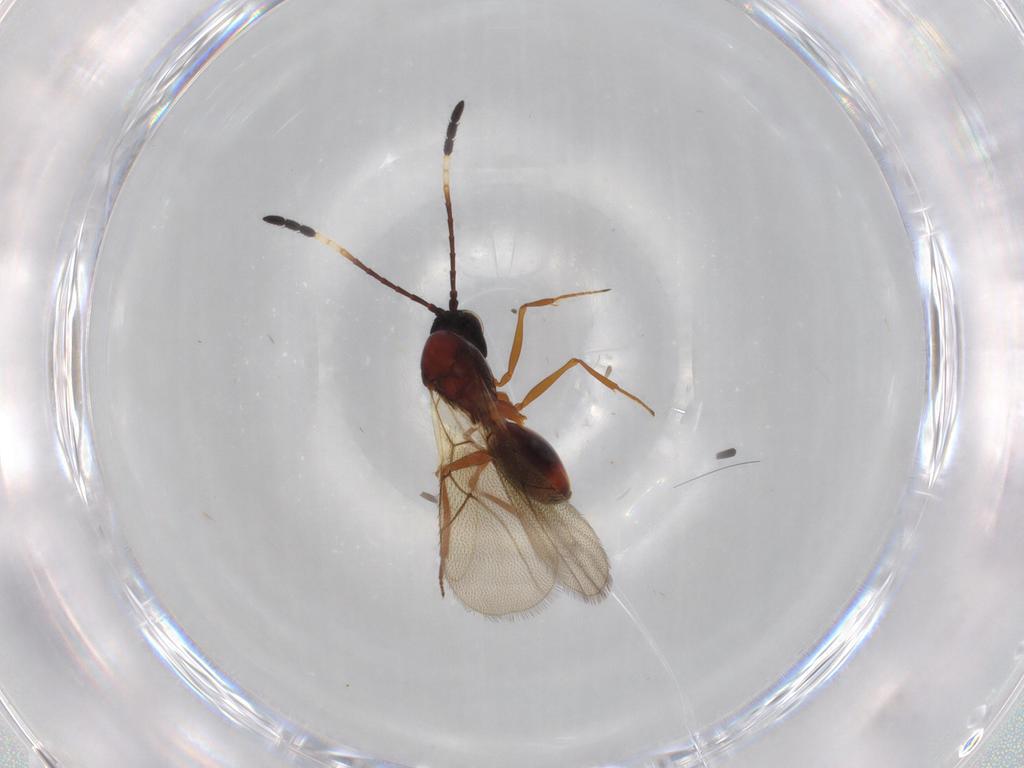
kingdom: Animalia
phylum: Arthropoda
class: Insecta
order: Hymenoptera
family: Figitidae
